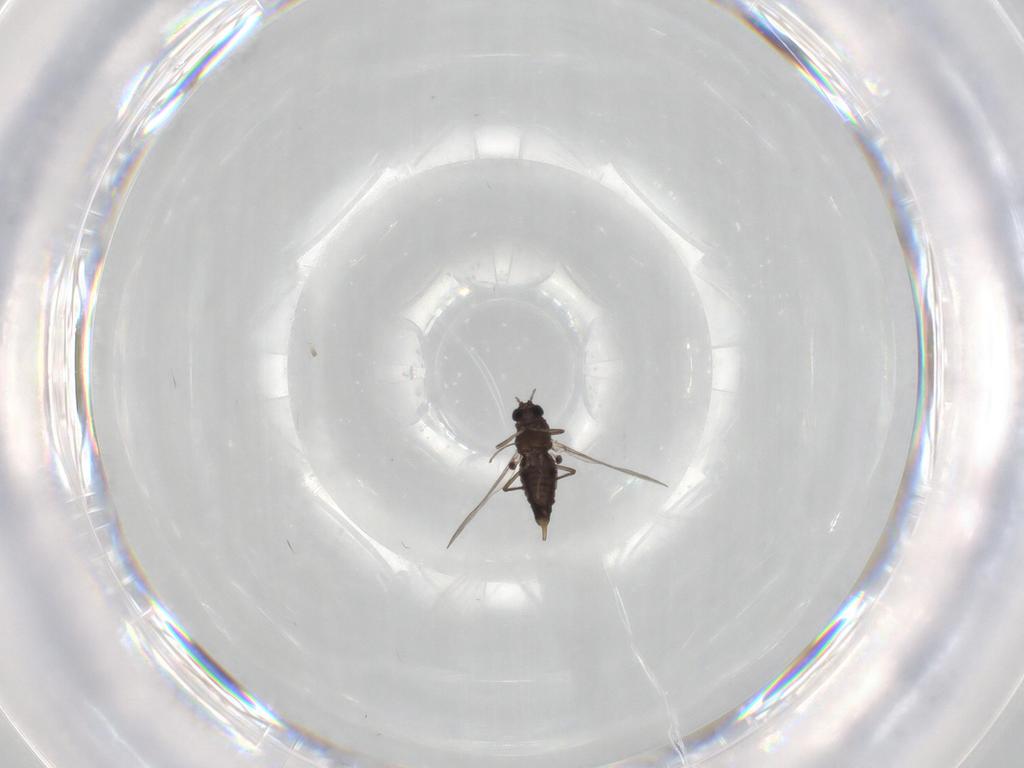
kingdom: Animalia
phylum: Arthropoda
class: Insecta
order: Diptera
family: Chironomidae
